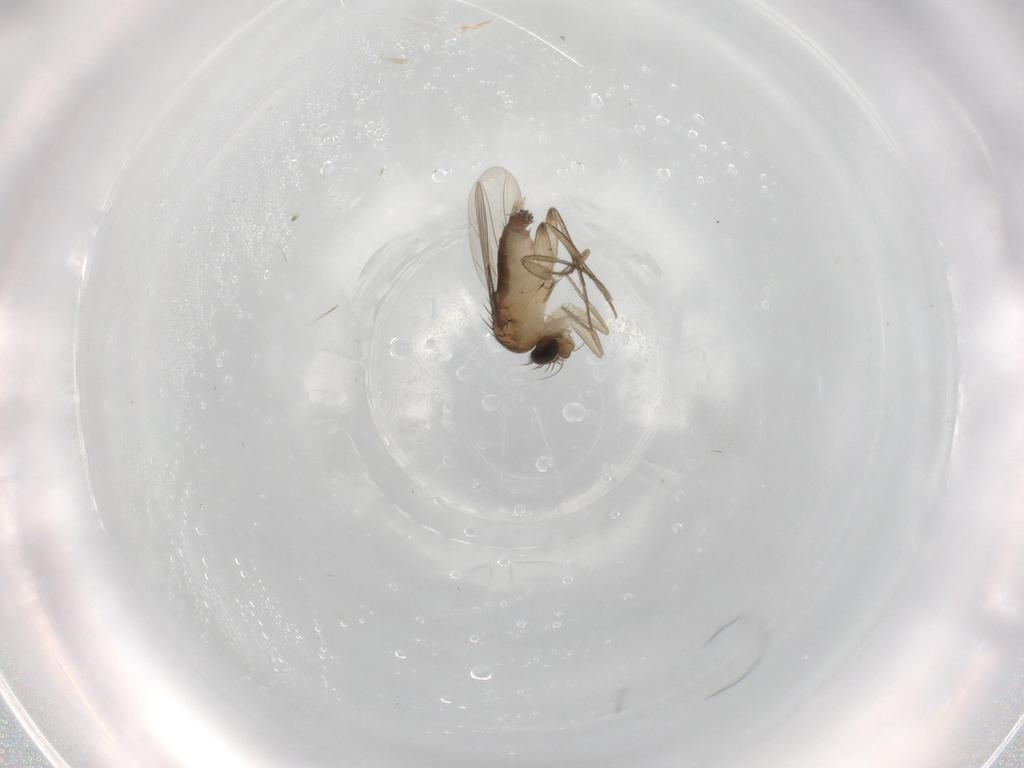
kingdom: Animalia
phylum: Arthropoda
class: Insecta
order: Diptera
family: Phoridae
